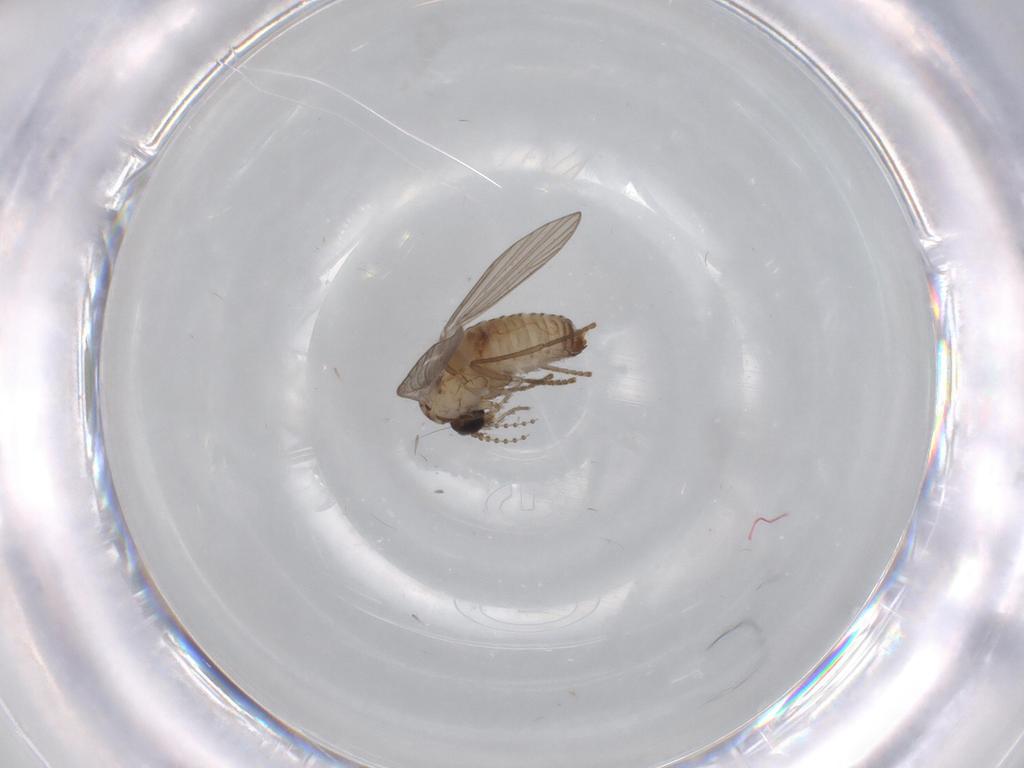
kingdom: Animalia
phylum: Arthropoda
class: Insecta
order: Diptera
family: Psychodidae
